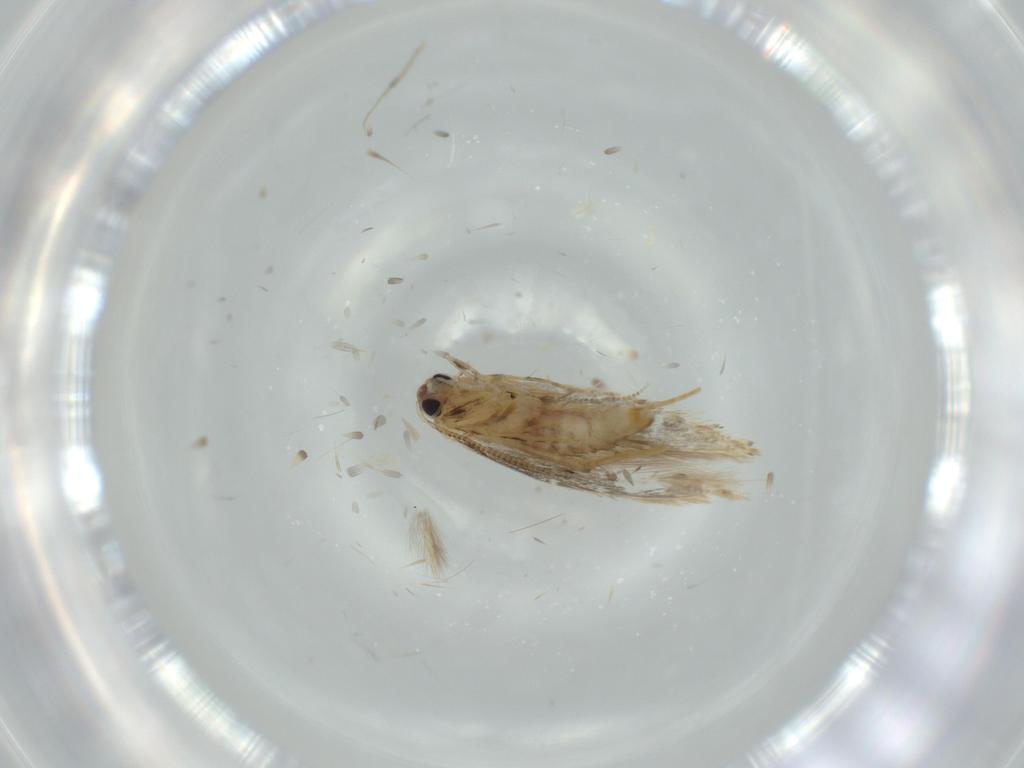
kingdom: Animalia
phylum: Arthropoda
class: Insecta
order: Lepidoptera
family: Tineidae
